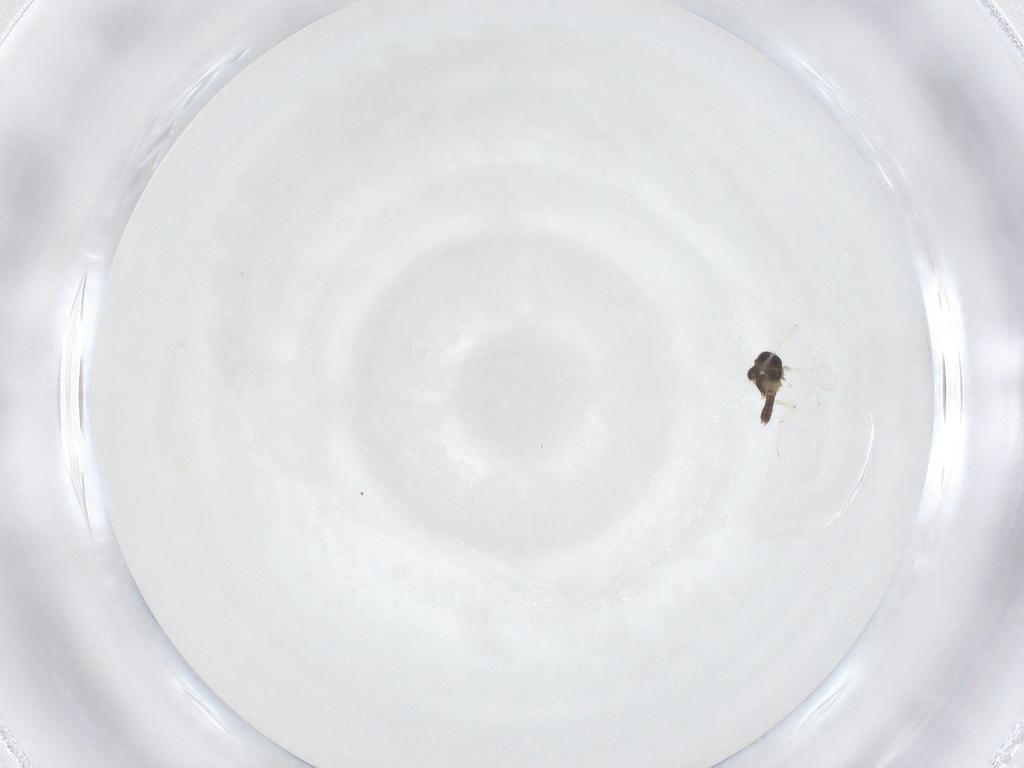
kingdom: Animalia
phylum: Arthropoda
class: Insecta
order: Diptera
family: Chironomidae
